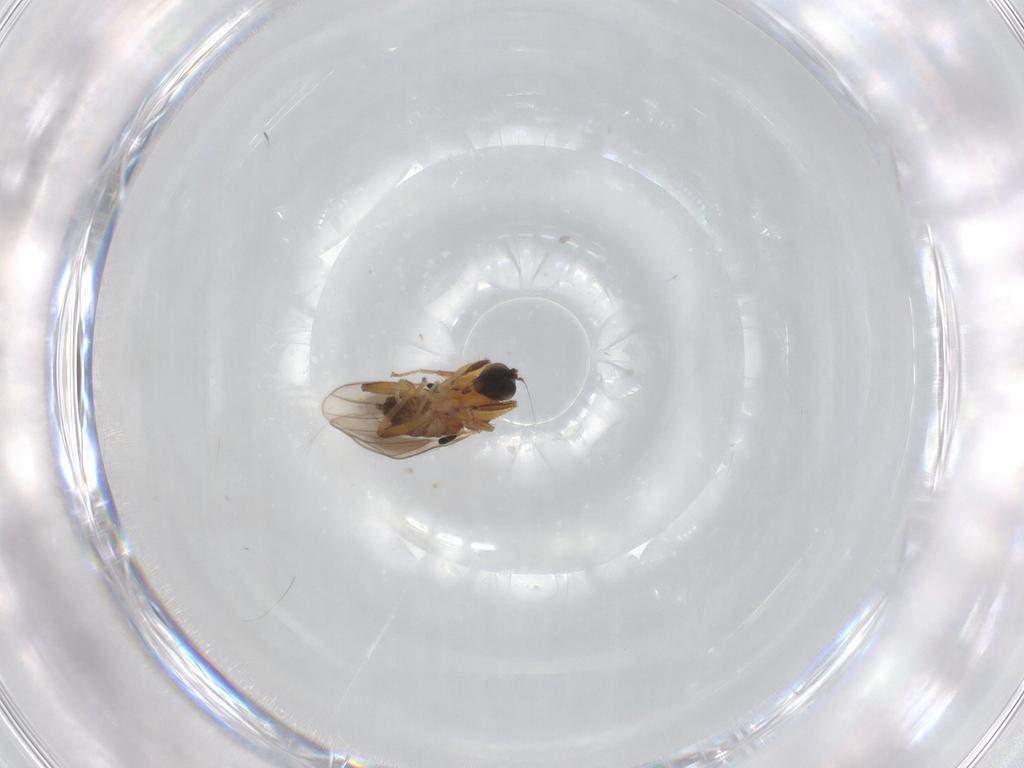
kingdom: Animalia
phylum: Arthropoda
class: Insecta
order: Diptera
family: Hybotidae
